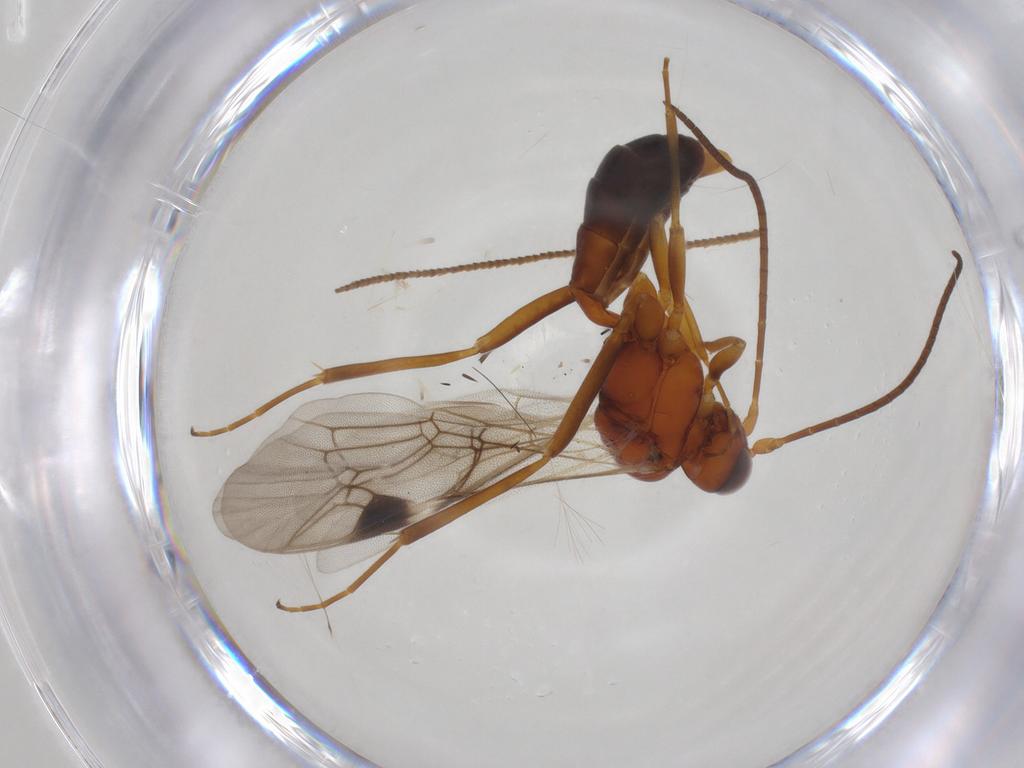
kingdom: Animalia
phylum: Arthropoda
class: Insecta
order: Hymenoptera
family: Ichneumonidae
